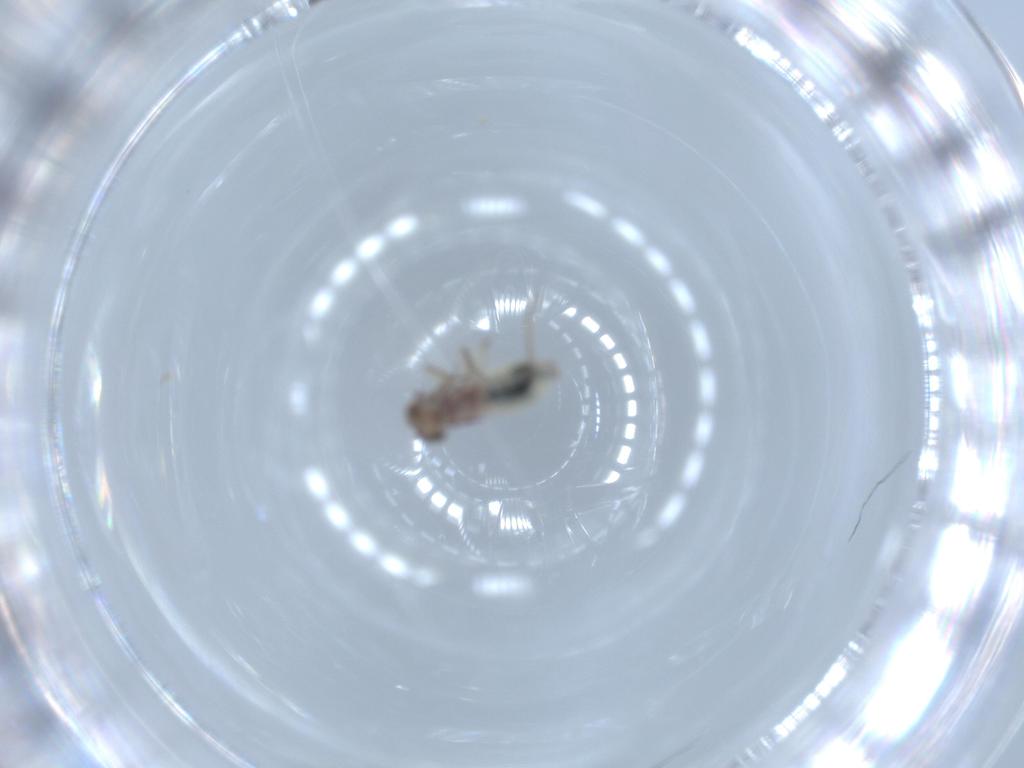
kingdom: Animalia
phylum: Arthropoda
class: Insecta
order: Psocodea
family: Lepidopsocidae
